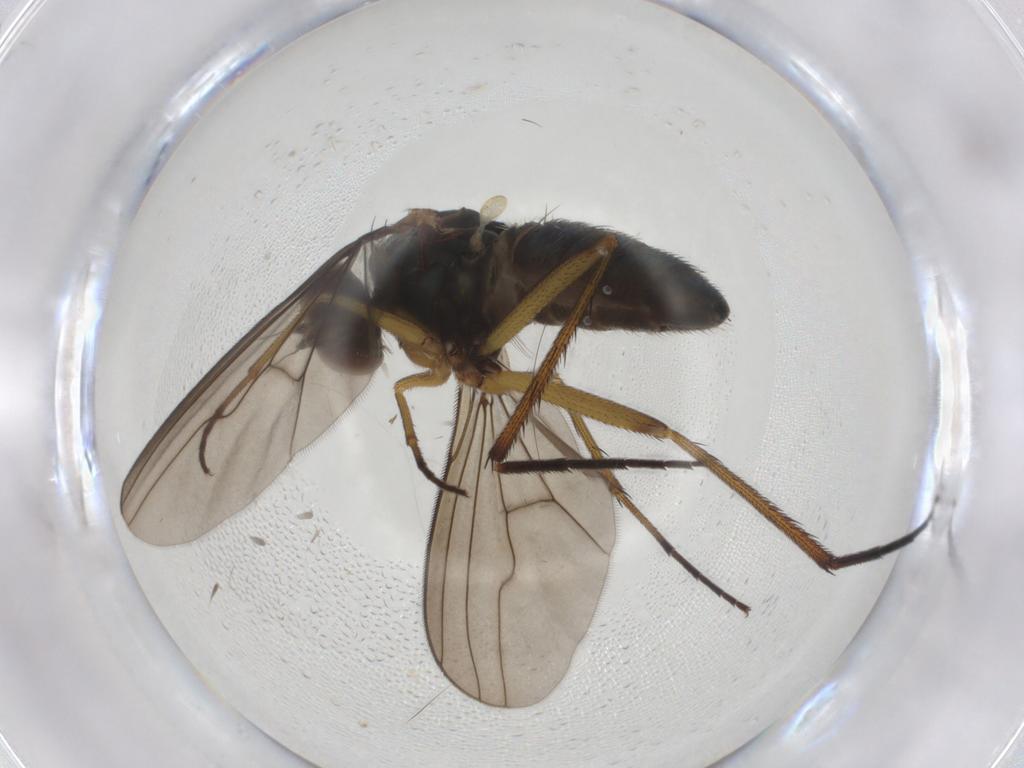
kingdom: Animalia
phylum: Arthropoda
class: Insecta
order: Diptera
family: Dolichopodidae
